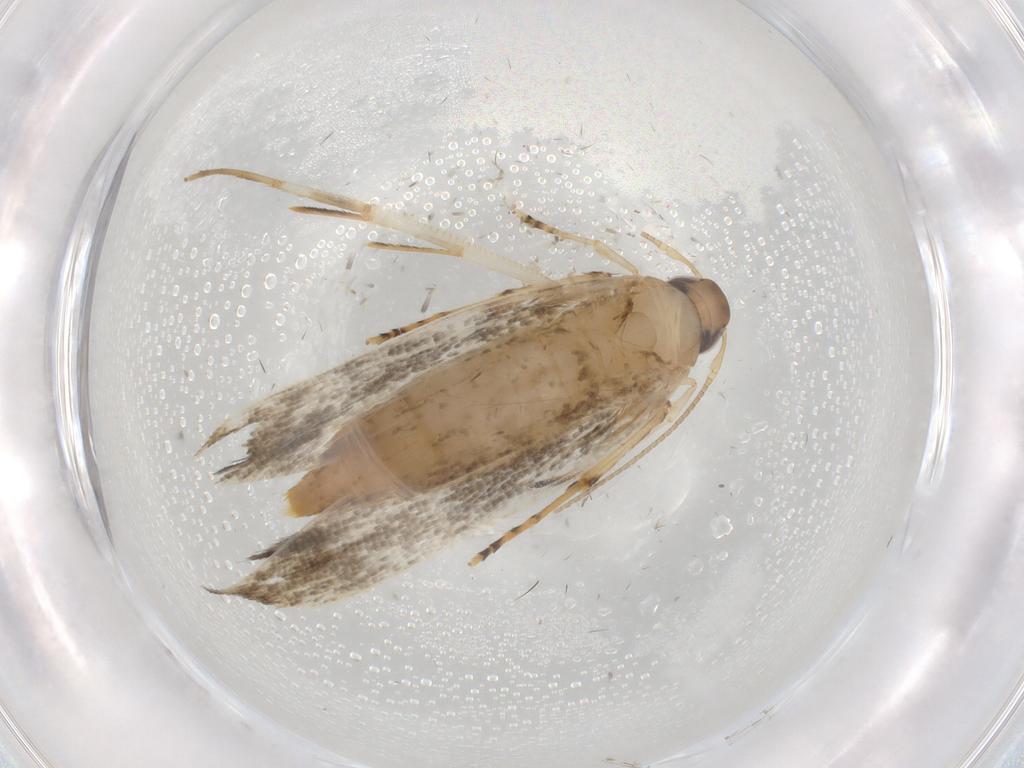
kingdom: Animalia
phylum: Arthropoda
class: Insecta
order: Lepidoptera
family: Cosmopterigidae
